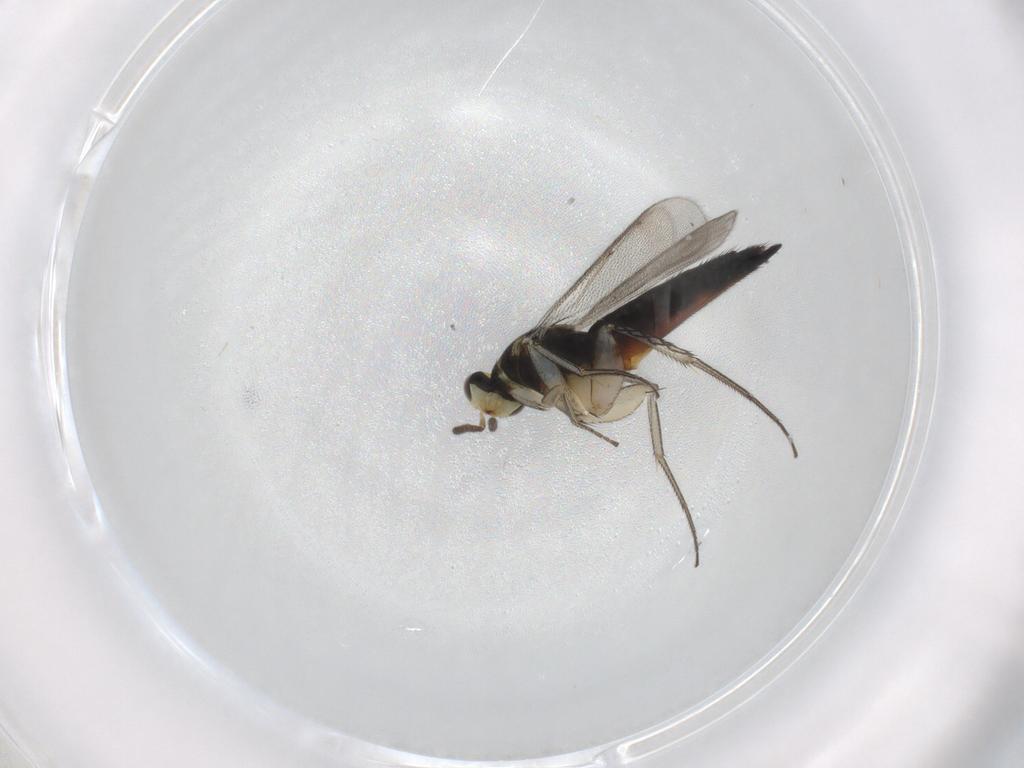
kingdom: Animalia
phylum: Arthropoda
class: Insecta
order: Hymenoptera
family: Eulophidae
